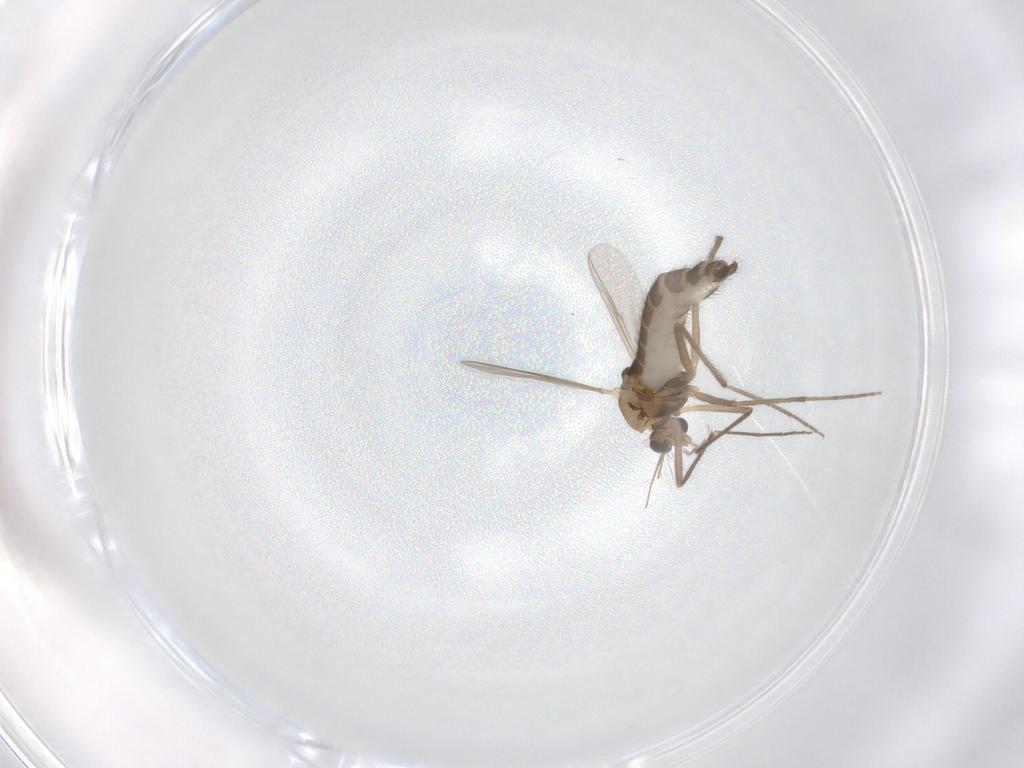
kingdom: Animalia
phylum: Arthropoda
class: Insecta
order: Diptera
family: Chironomidae
